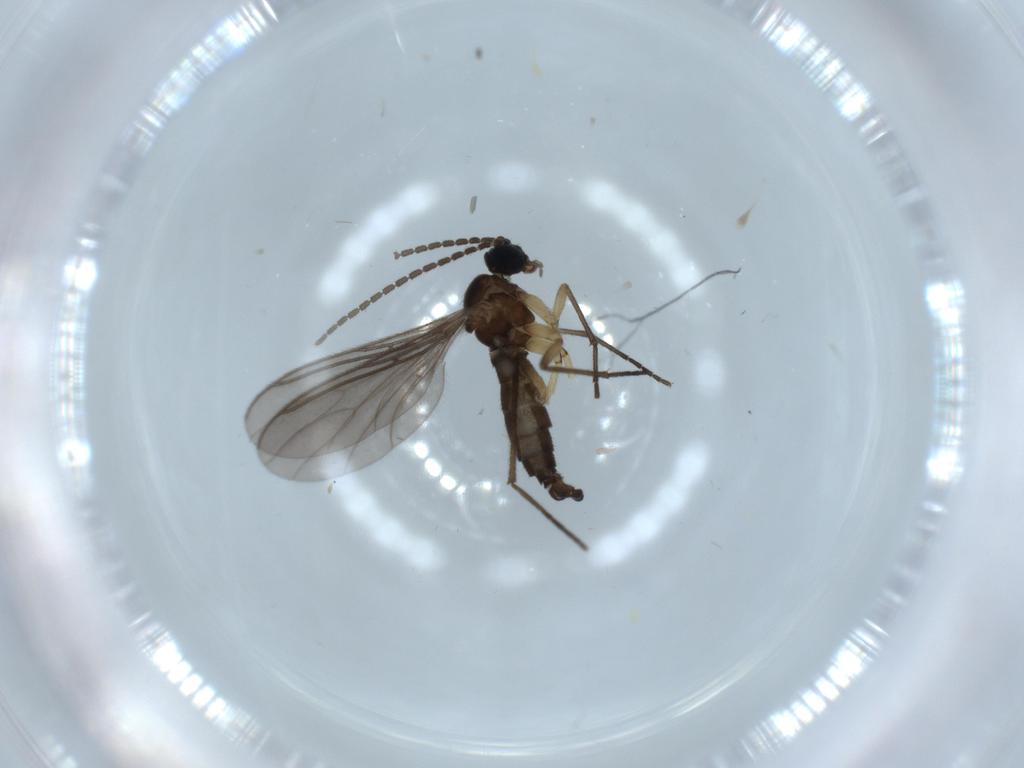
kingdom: Animalia
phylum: Arthropoda
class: Insecta
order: Diptera
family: Sciaridae
